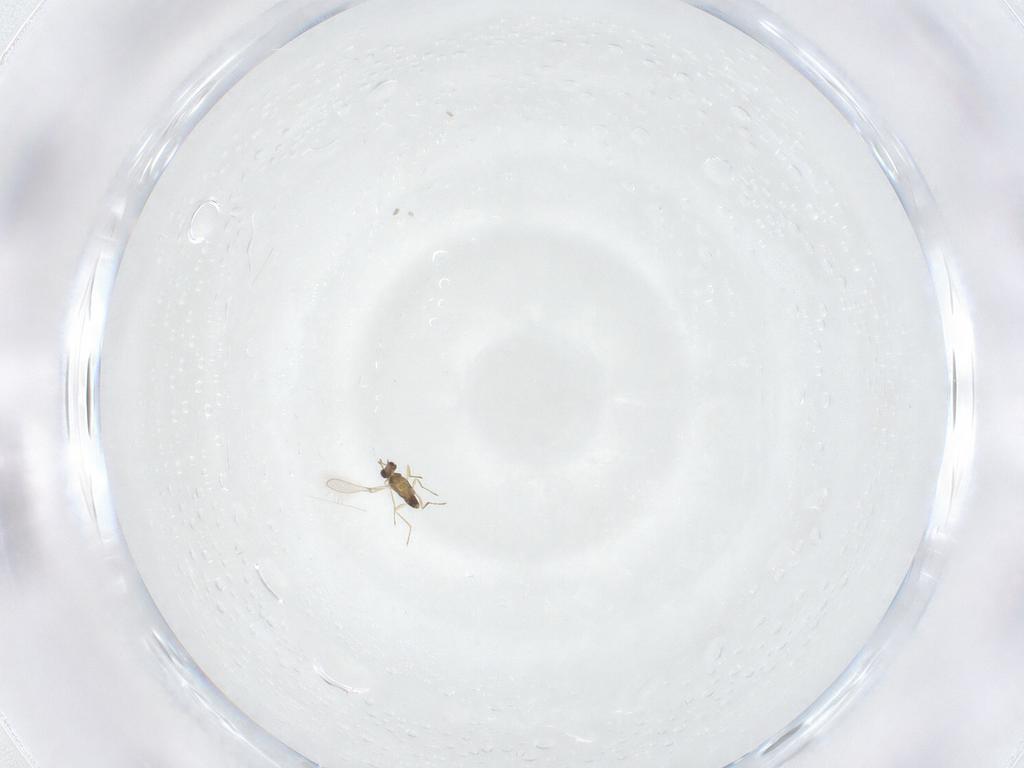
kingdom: Animalia
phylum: Arthropoda
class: Insecta
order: Hymenoptera
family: Mymaridae
